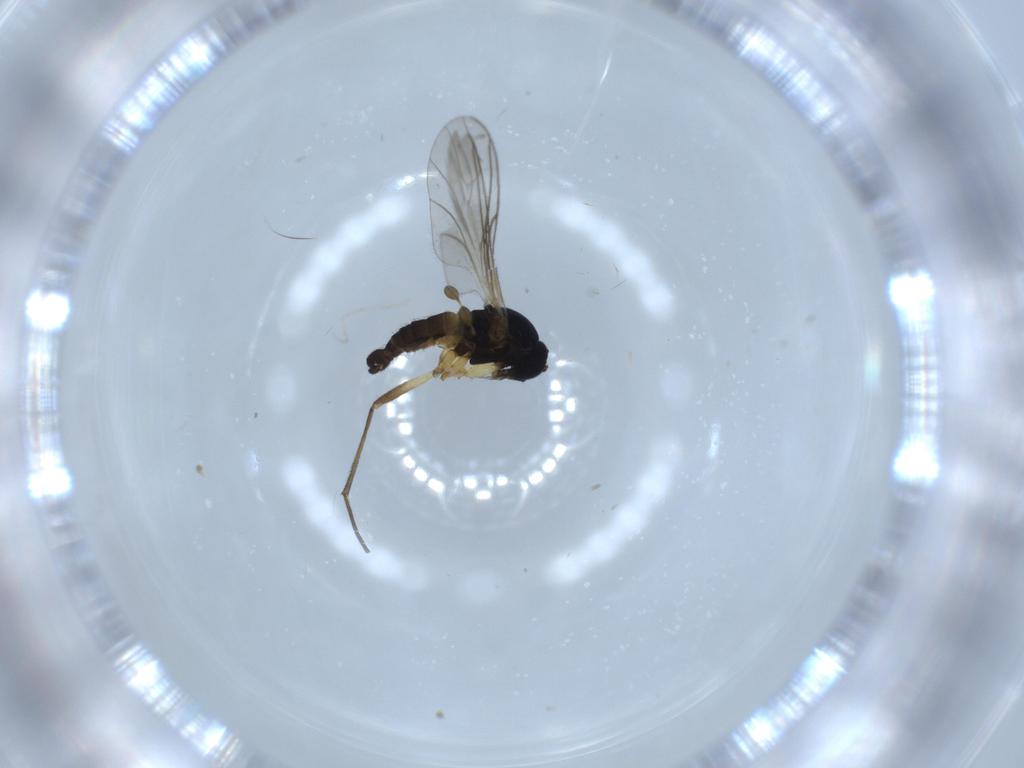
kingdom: Animalia
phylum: Arthropoda
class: Insecta
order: Diptera
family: Sciaridae
